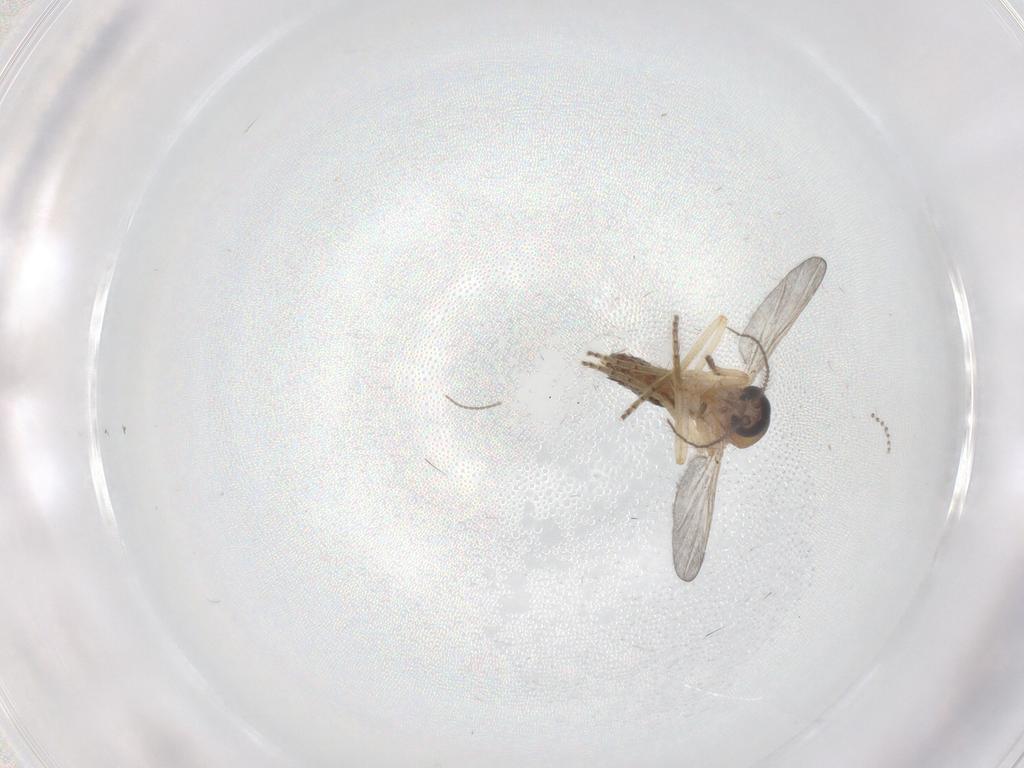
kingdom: Animalia
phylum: Arthropoda
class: Insecta
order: Diptera
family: Ceratopogonidae
